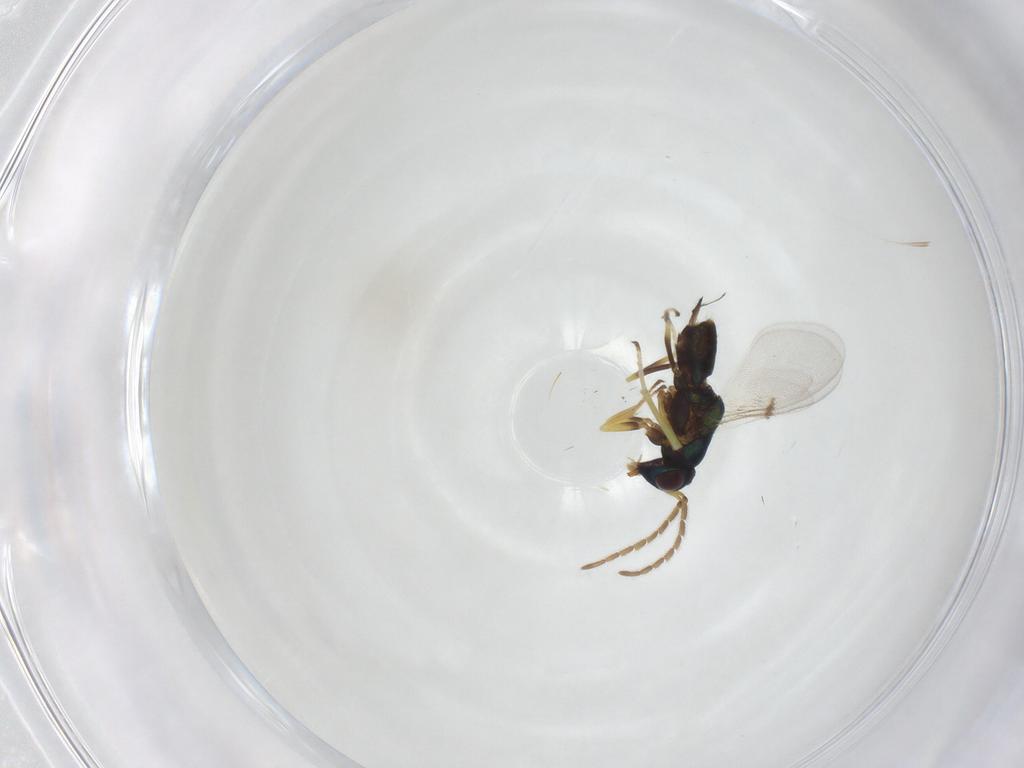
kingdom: Animalia
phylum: Arthropoda
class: Insecta
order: Hymenoptera
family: Encyrtidae
